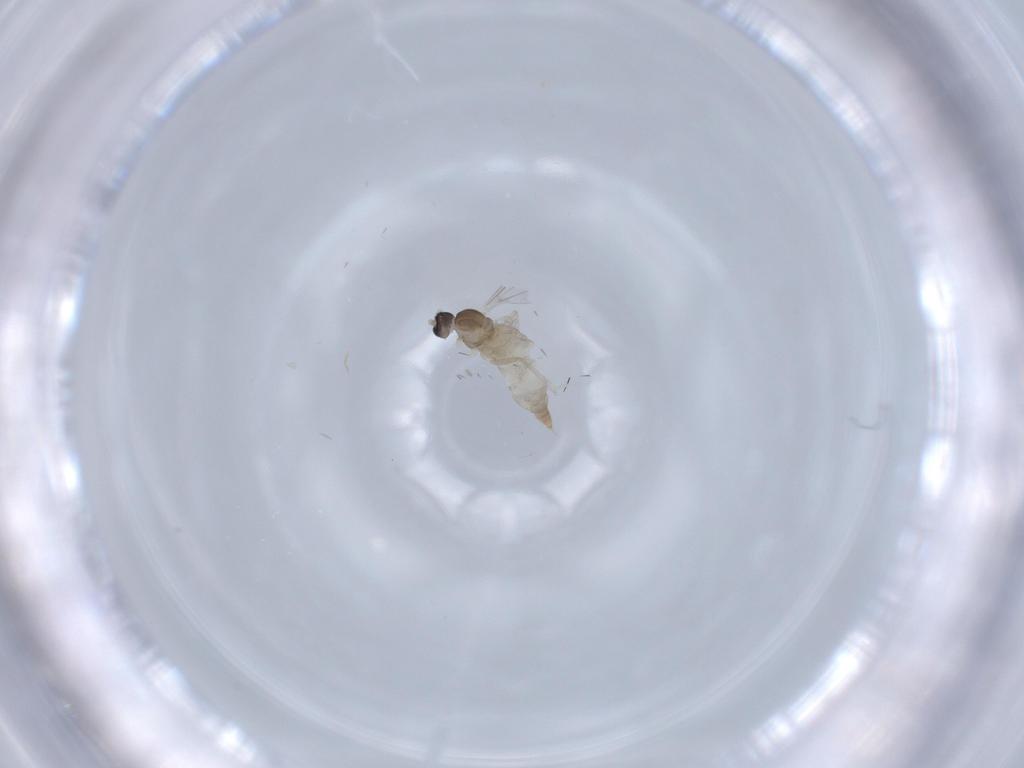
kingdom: Animalia
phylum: Arthropoda
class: Insecta
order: Diptera
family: Cecidomyiidae
